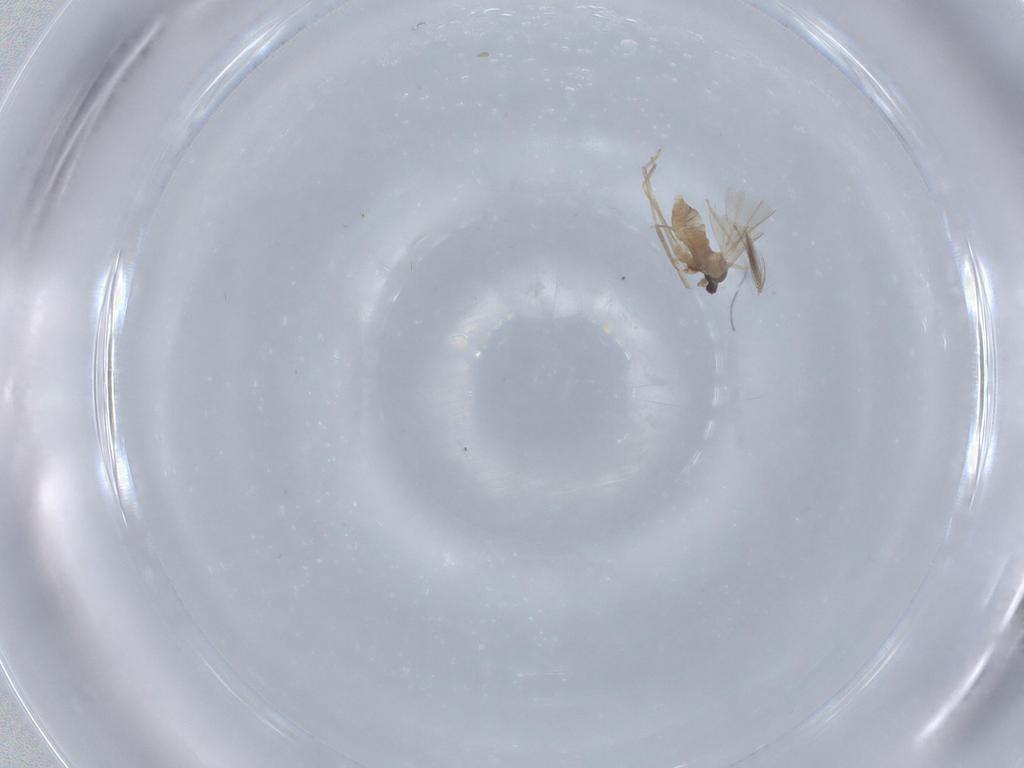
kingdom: Animalia
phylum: Arthropoda
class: Insecta
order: Diptera
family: Cecidomyiidae
